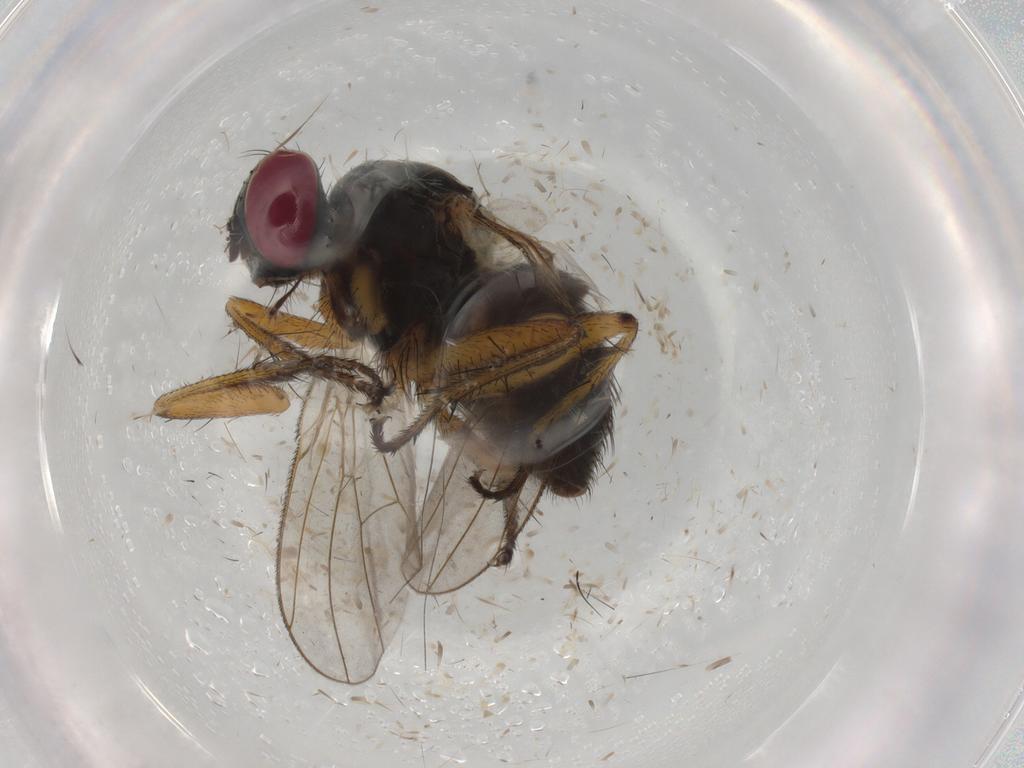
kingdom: Animalia
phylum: Arthropoda
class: Insecta
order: Diptera
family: Muscidae
